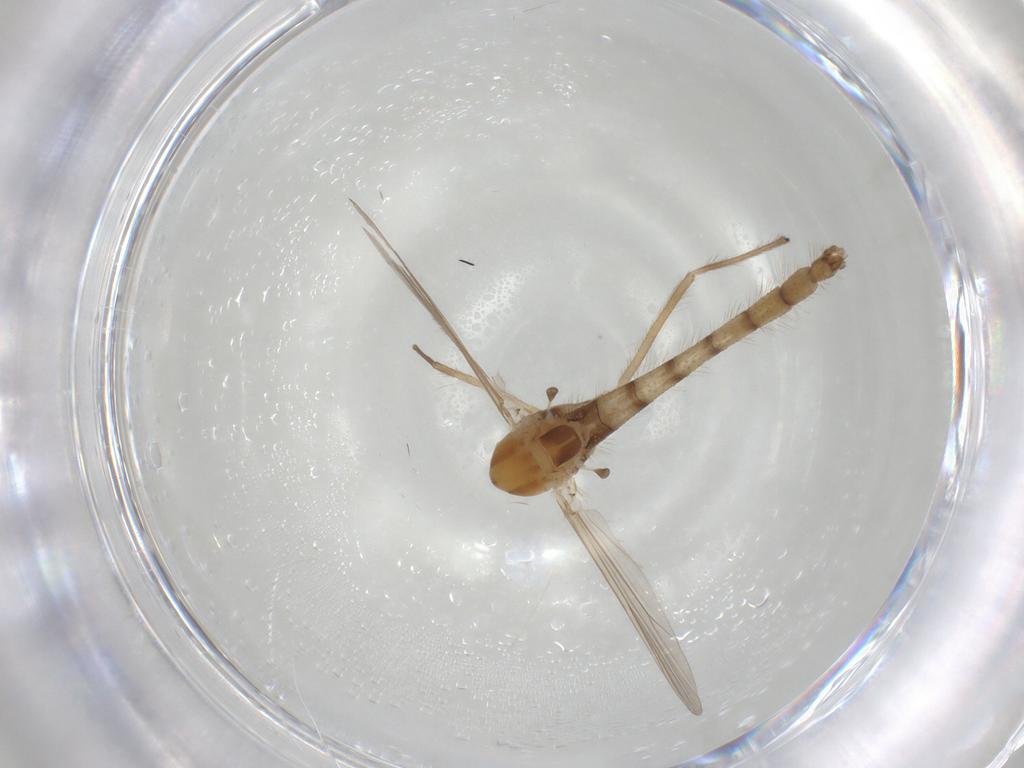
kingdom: Animalia
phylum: Arthropoda
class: Insecta
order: Diptera
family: Chironomidae
